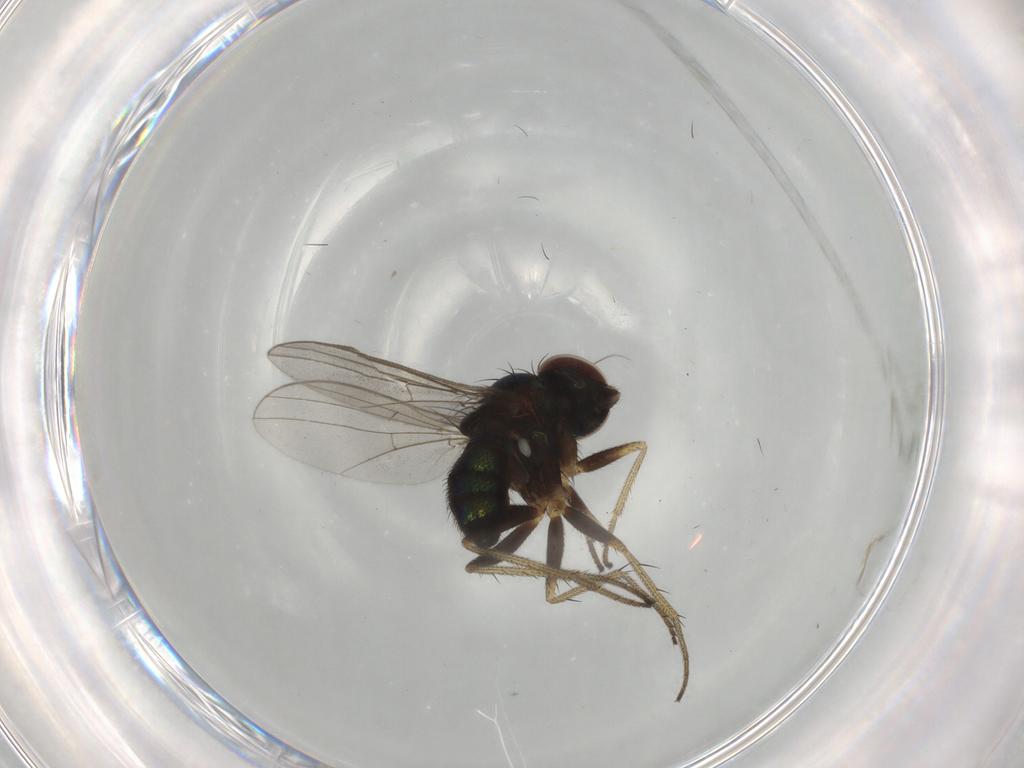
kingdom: Animalia
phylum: Arthropoda
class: Insecta
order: Diptera
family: Dolichopodidae
